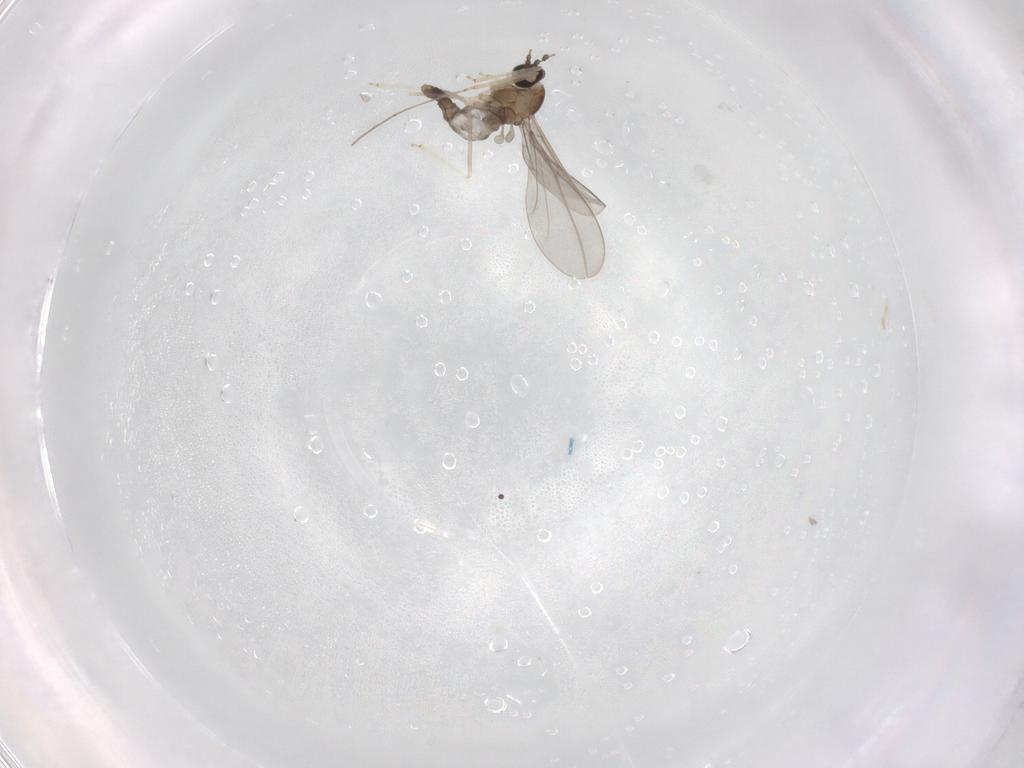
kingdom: Animalia
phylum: Arthropoda
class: Insecta
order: Diptera
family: Cecidomyiidae
